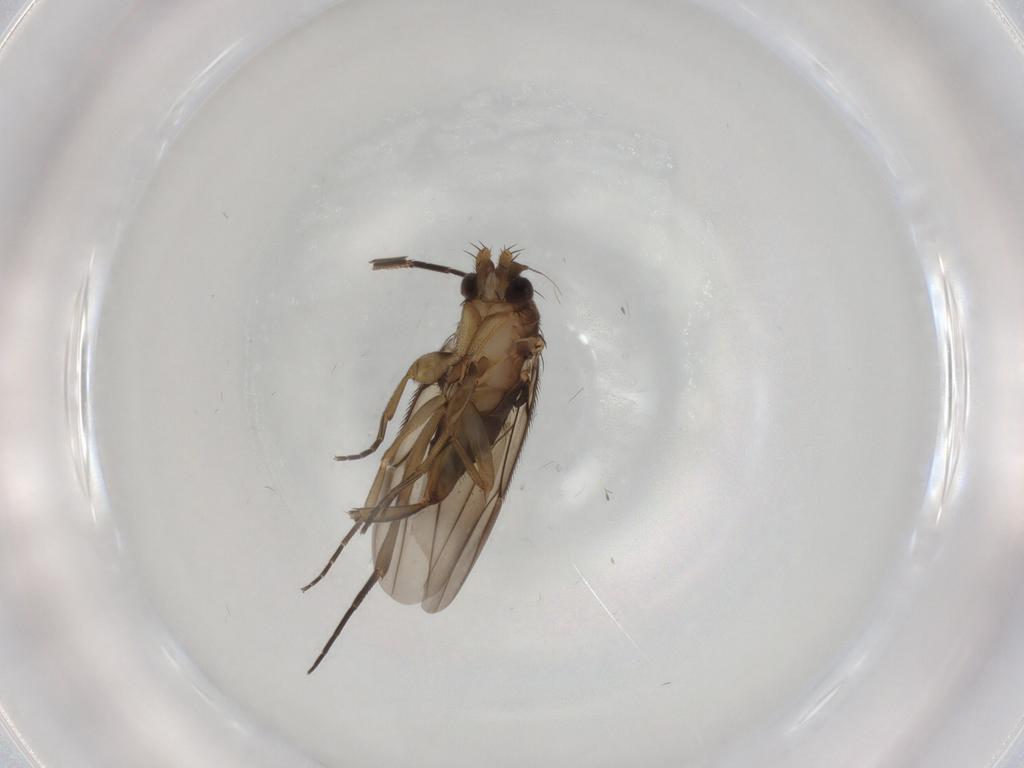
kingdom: Animalia
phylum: Arthropoda
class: Insecta
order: Diptera
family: Phoridae
